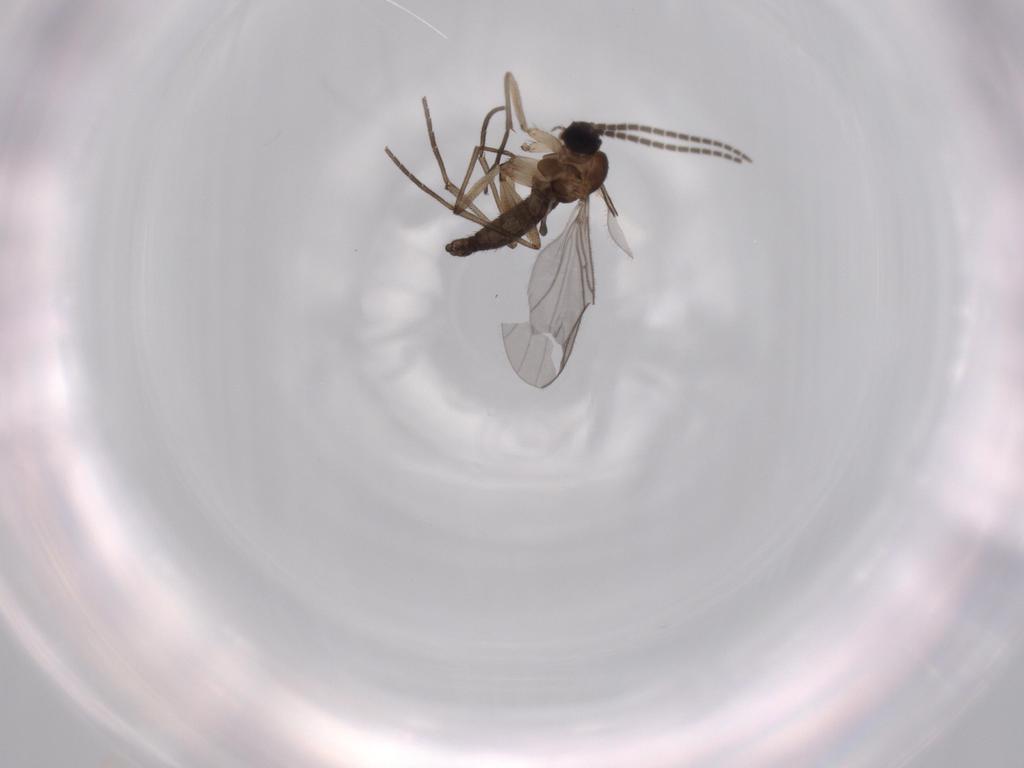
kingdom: Animalia
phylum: Arthropoda
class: Insecta
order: Diptera
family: Sciaridae
